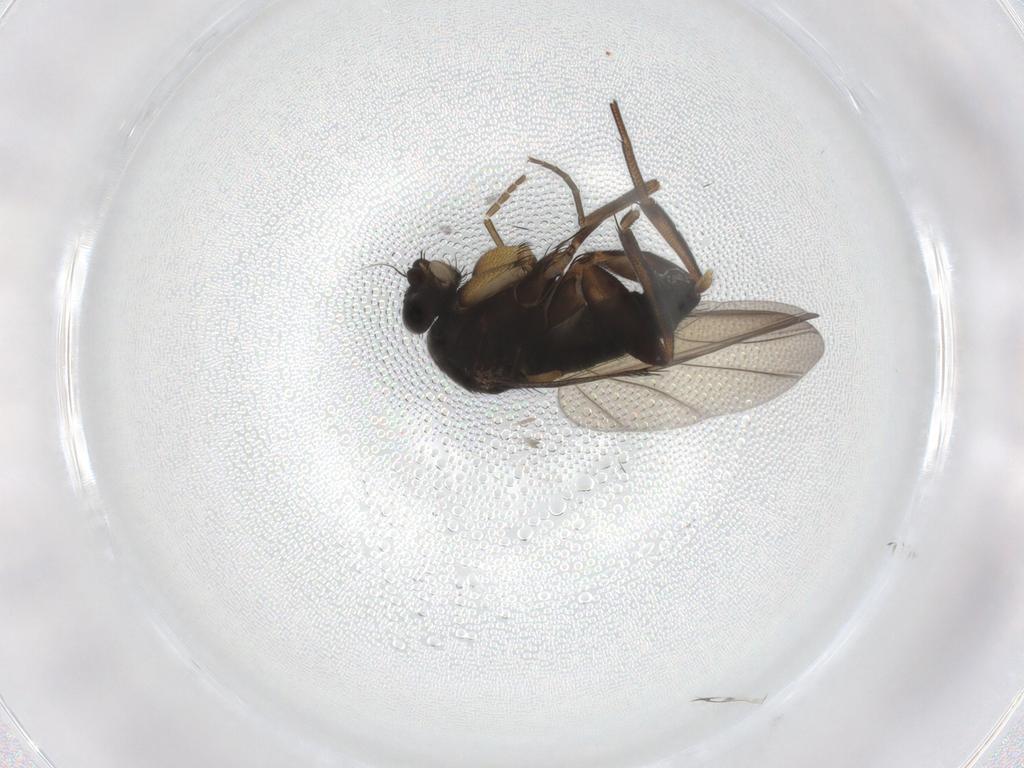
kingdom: Animalia
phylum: Arthropoda
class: Insecta
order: Diptera
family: Phoridae
